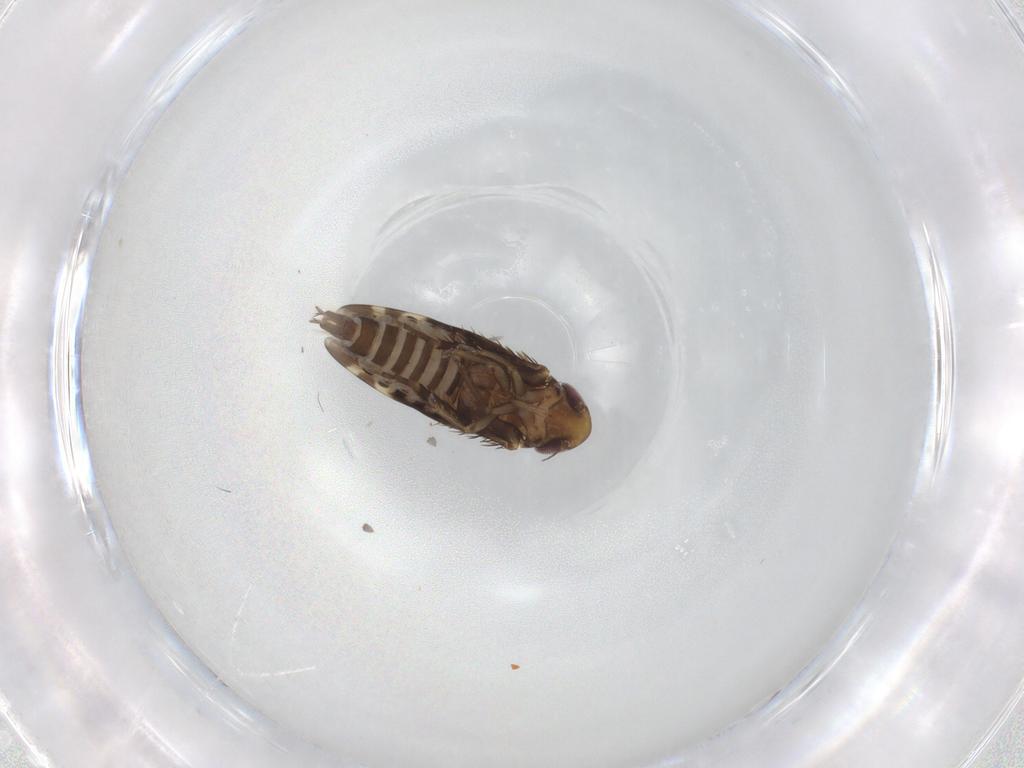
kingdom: Animalia
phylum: Arthropoda
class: Insecta
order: Hemiptera
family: Cicadellidae
